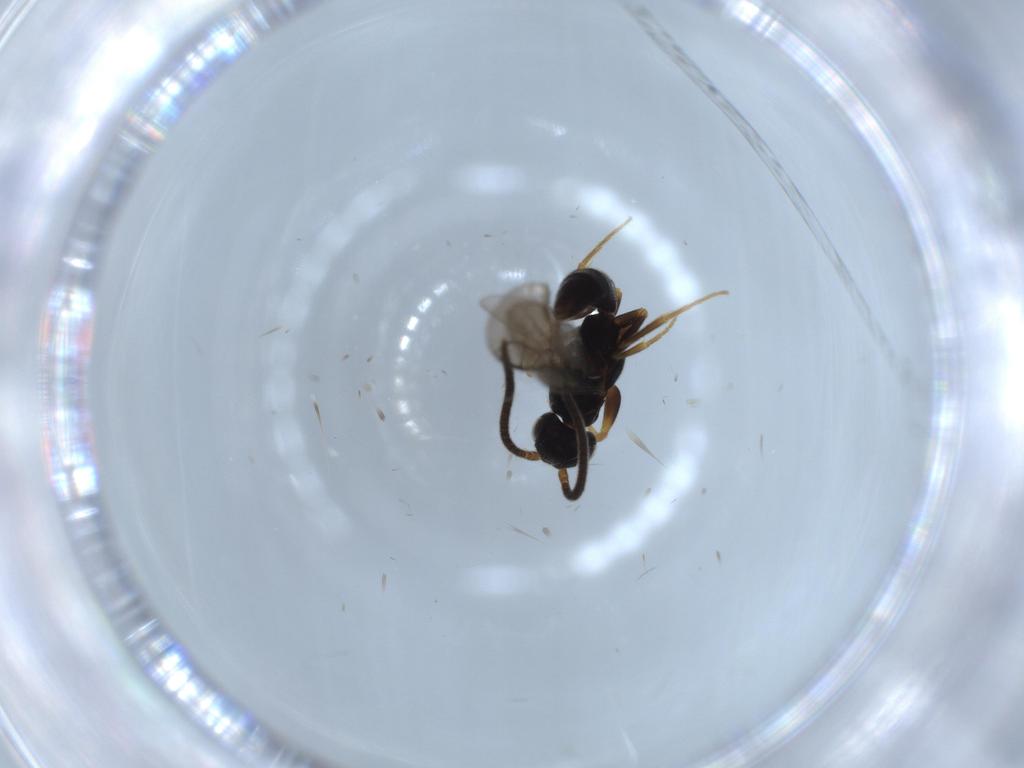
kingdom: Animalia
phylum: Arthropoda
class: Insecta
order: Hymenoptera
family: Sclerogibbidae
